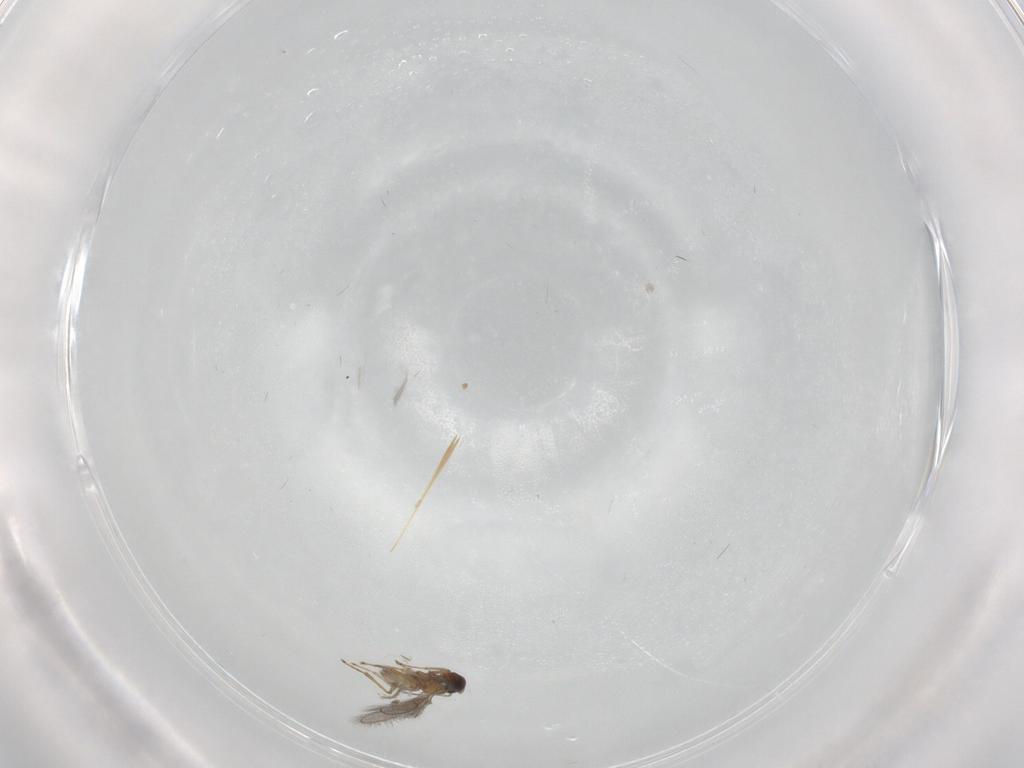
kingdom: Animalia
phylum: Arthropoda
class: Insecta
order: Hymenoptera
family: Mymaridae
